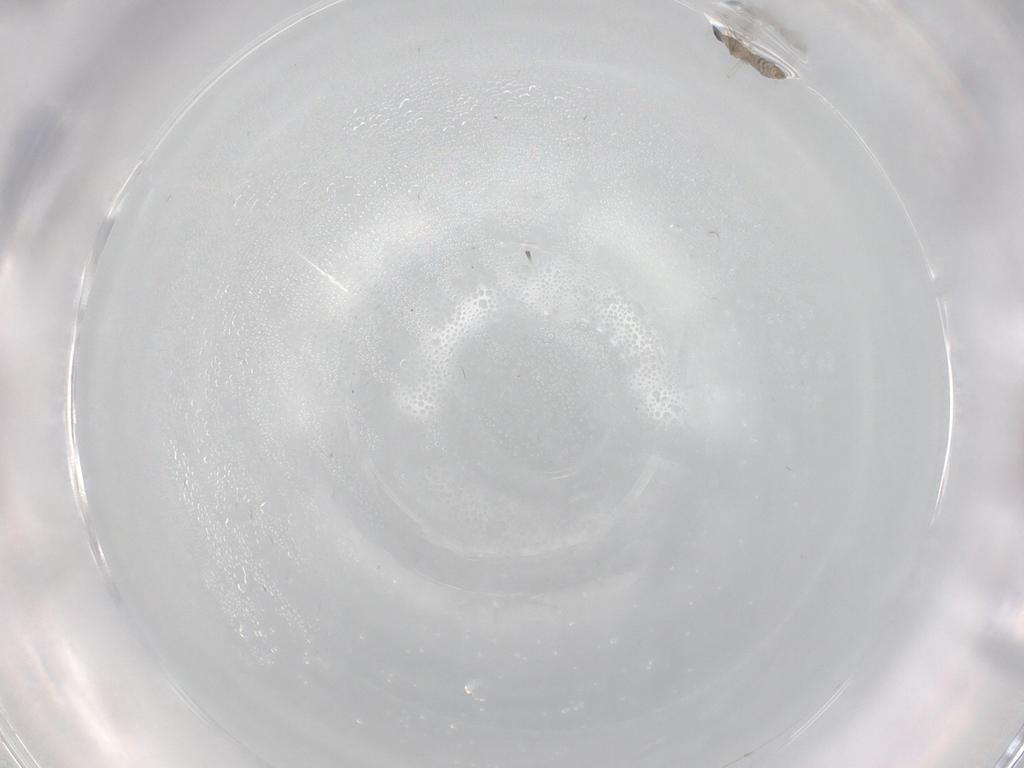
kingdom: Animalia
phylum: Arthropoda
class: Insecta
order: Diptera
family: Cecidomyiidae
